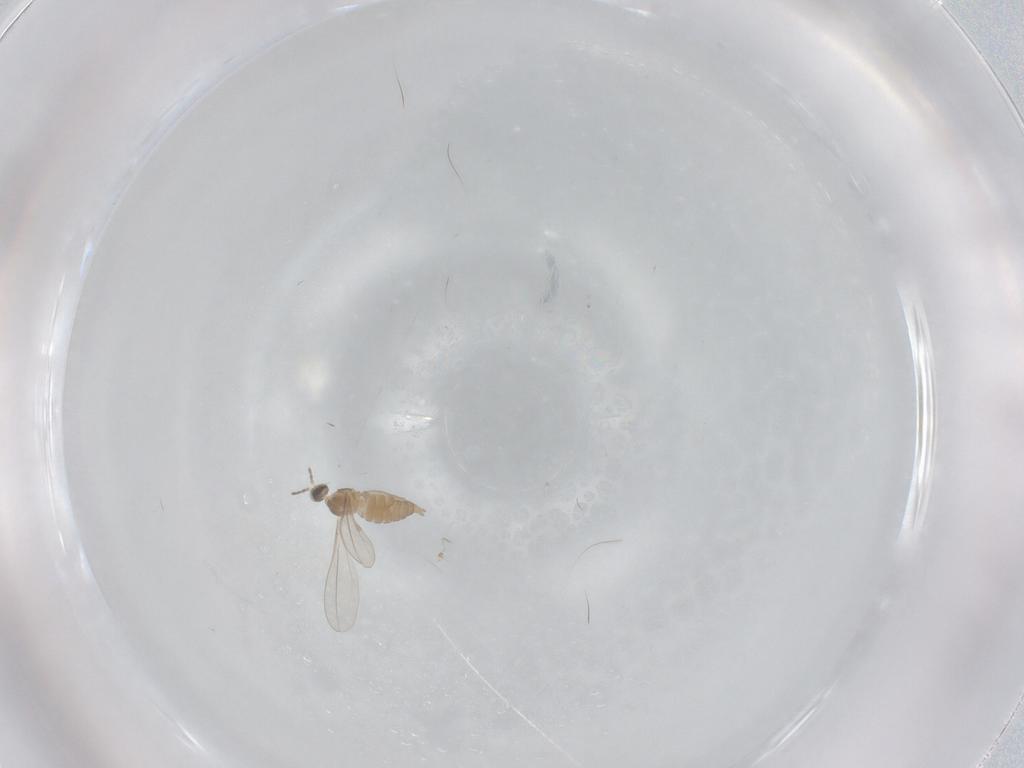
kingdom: Animalia
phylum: Arthropoda
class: Insecta
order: Diptera
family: Cecidomyiidae
